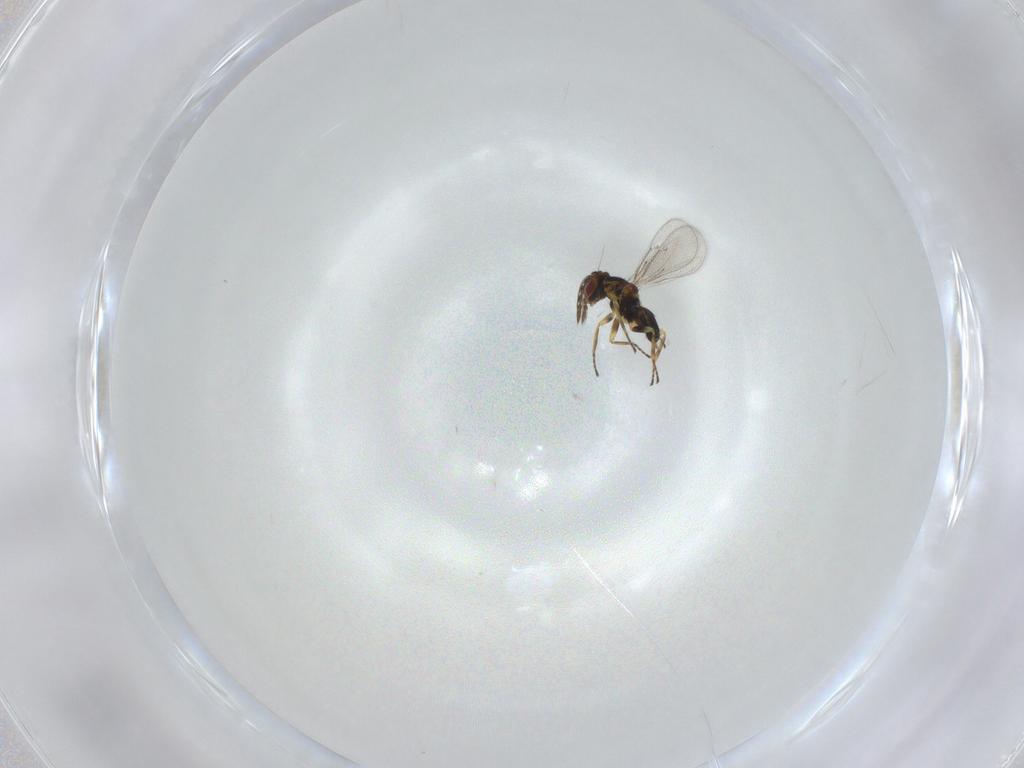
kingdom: Animalia
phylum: Arthropoda
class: Insecta
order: Hymenoptera
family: Eulophidae
